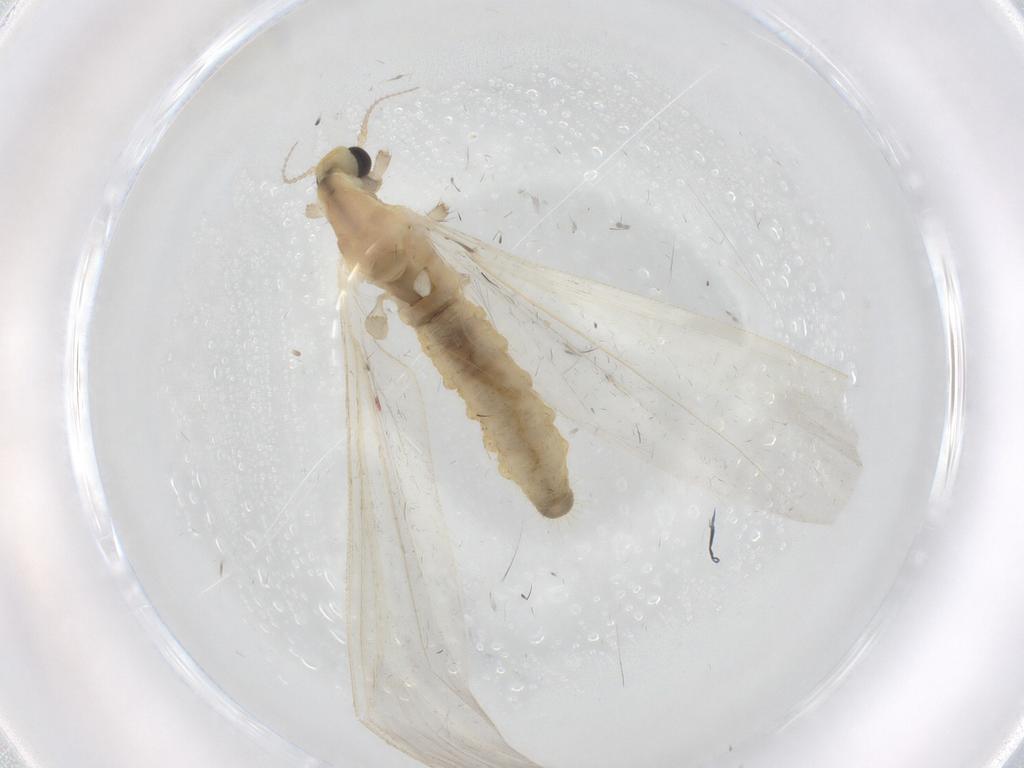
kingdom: Animalia
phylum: Arthropoda
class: Insecta
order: Diptera
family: Limoniidae
